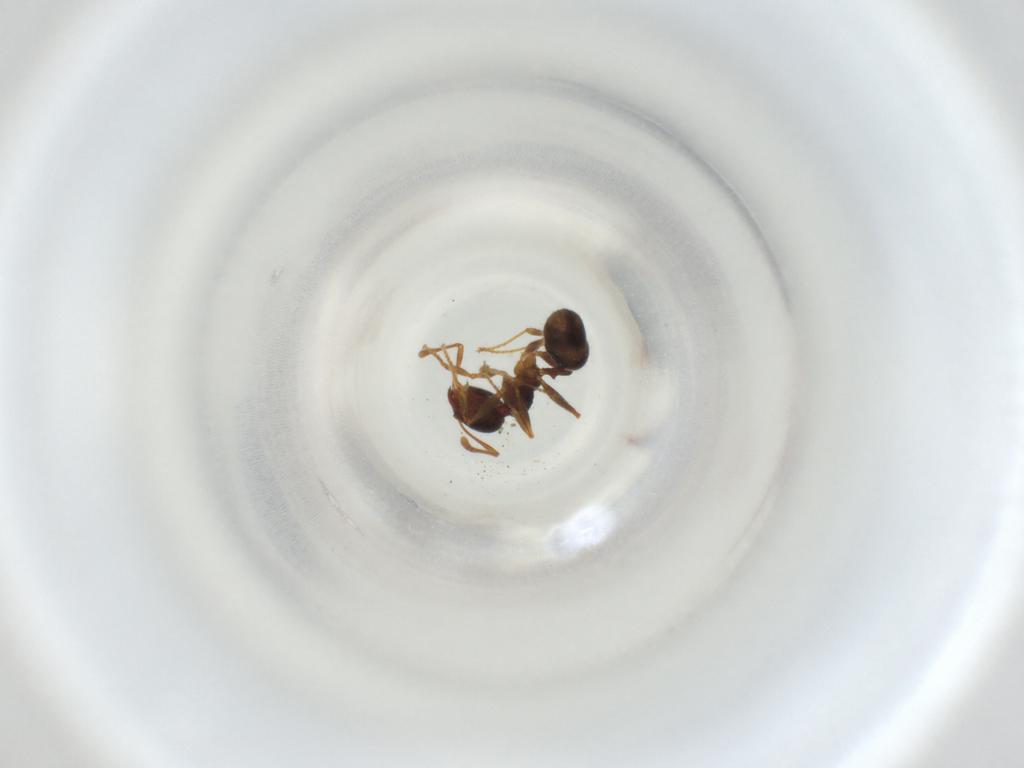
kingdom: Animalia
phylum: Arthropoda
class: Insecta
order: Hymenoptera
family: Formicidae
